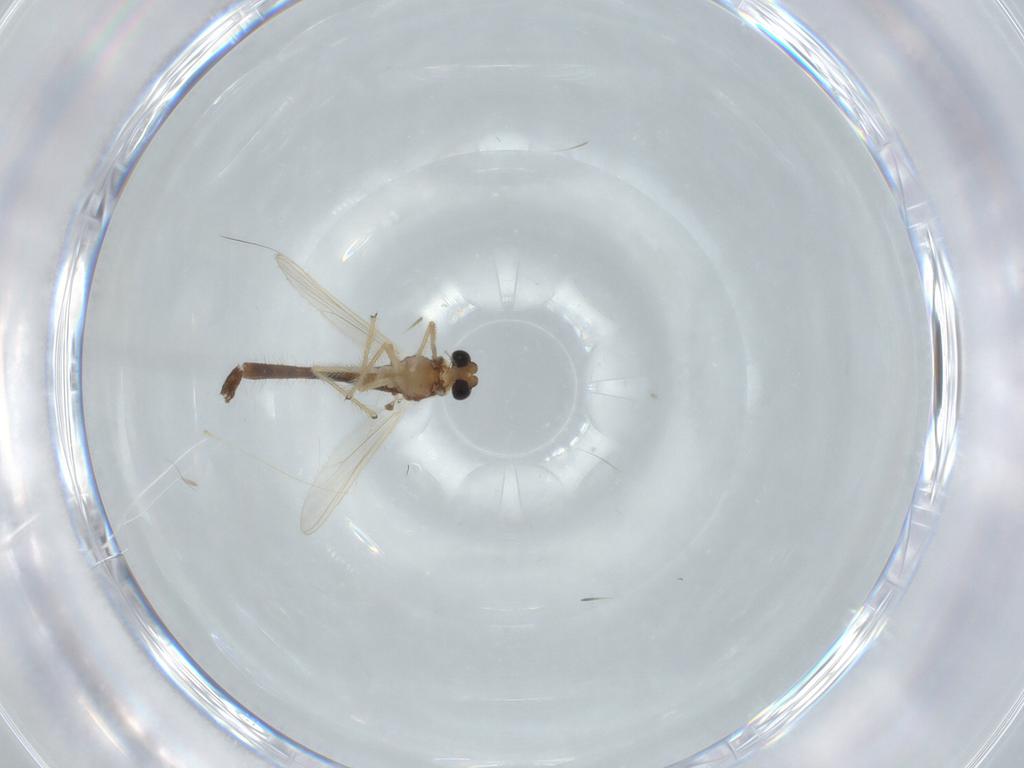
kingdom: Animalia
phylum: Arthropoda
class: Insecta
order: Diptera
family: Chironomidae
